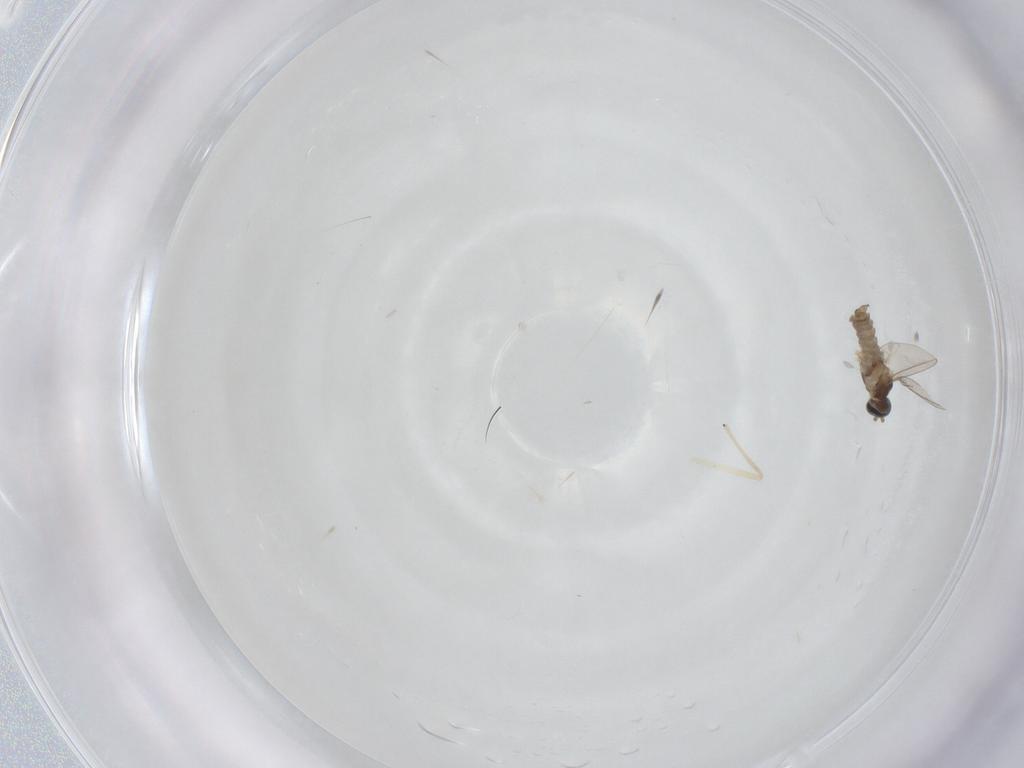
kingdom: Animalia
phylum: Arthropoda
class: Insecta
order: Diptera
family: Cecidomyiidae
